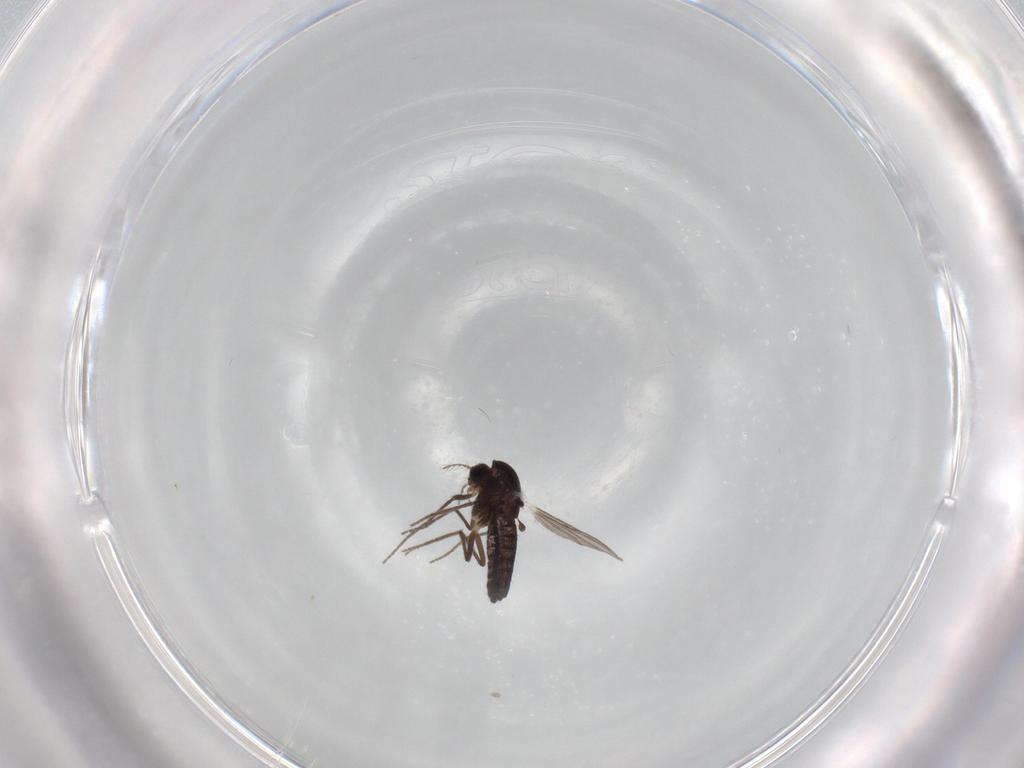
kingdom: Animalia
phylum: Arthropoda
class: Insecta
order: Diptera
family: Chironomidae
